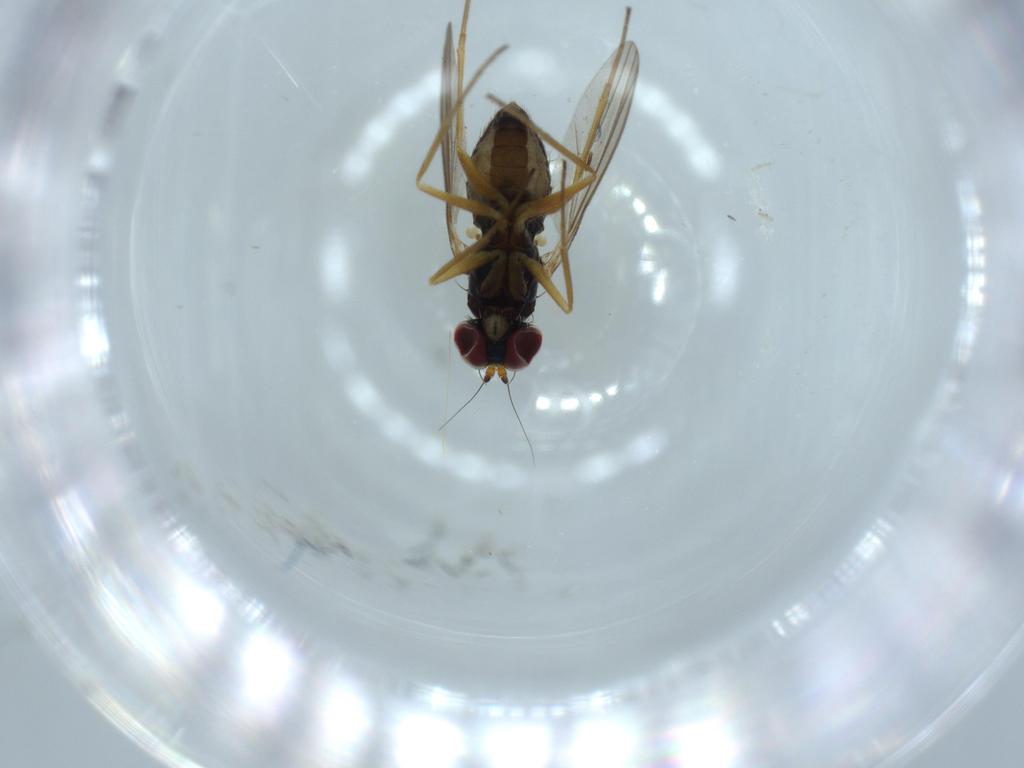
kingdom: Animalia
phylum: Arthropoda
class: Insecta
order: Diptera
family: Dolichopodidae
